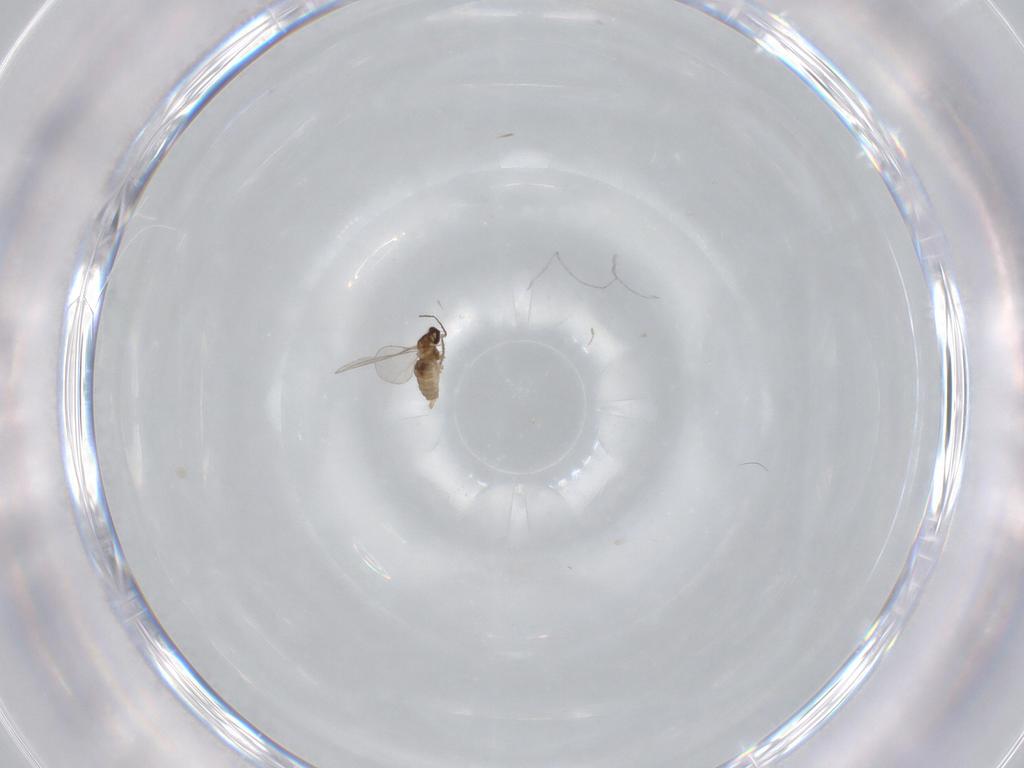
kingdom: Animalia
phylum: Arthropoda
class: Insecta
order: Diptera
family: Cecidomyiidae
